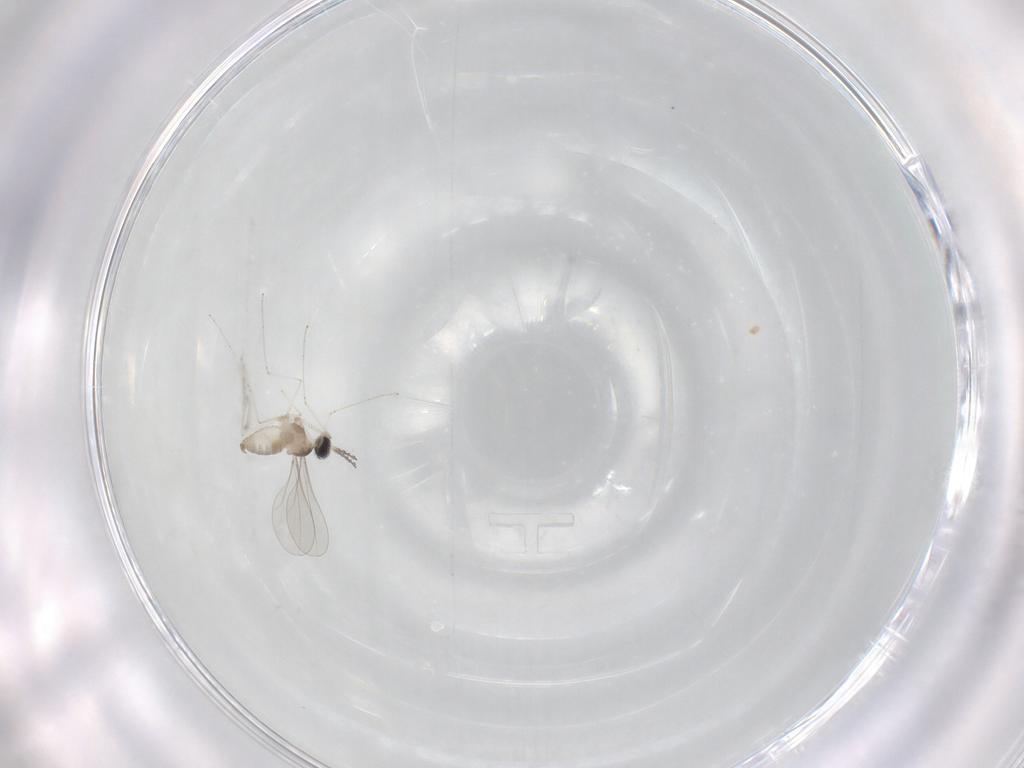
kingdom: Animalia
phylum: Arthropoda
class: Insecta
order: Diptera
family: Cecidomyiidae
